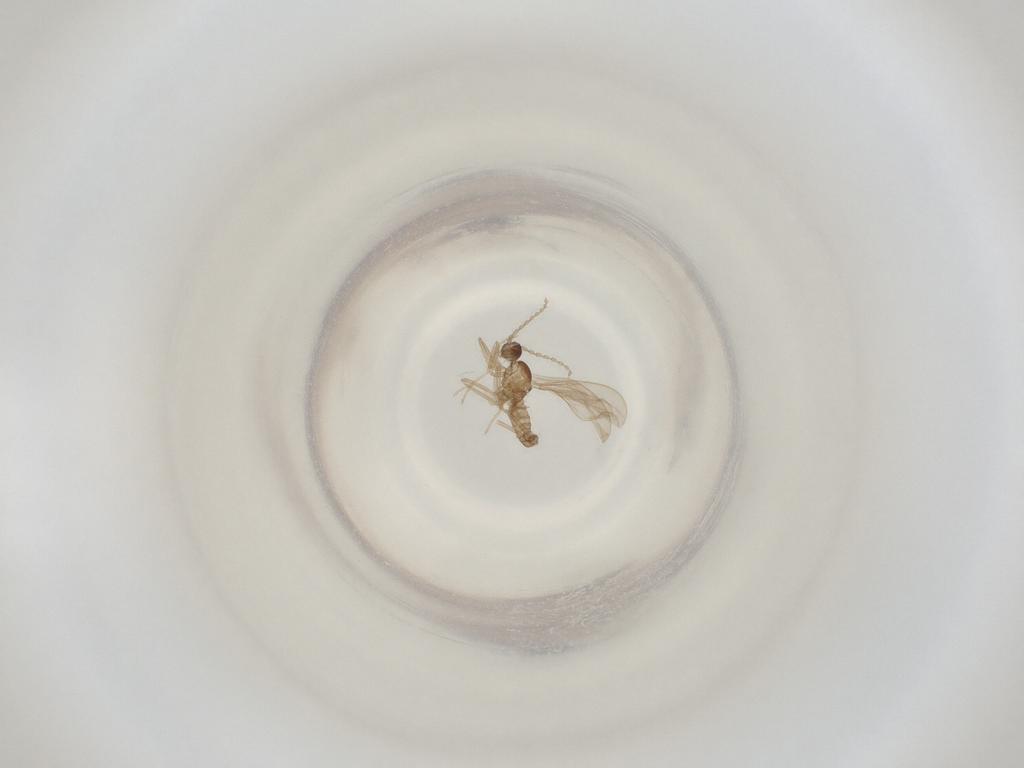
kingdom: Animalia
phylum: Arthropoda
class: Insecta
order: Diptera
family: Cecidomyiidae
